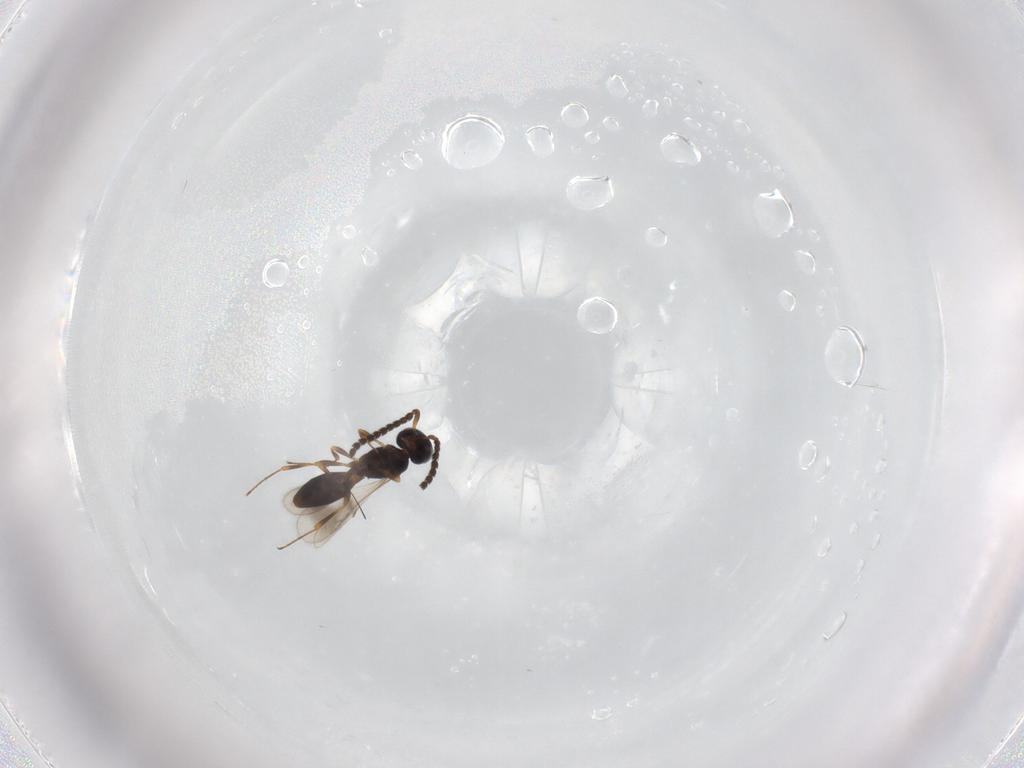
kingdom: Animalia
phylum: Arthropoda
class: Insecta
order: Hymenoptera
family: Scelionidae
